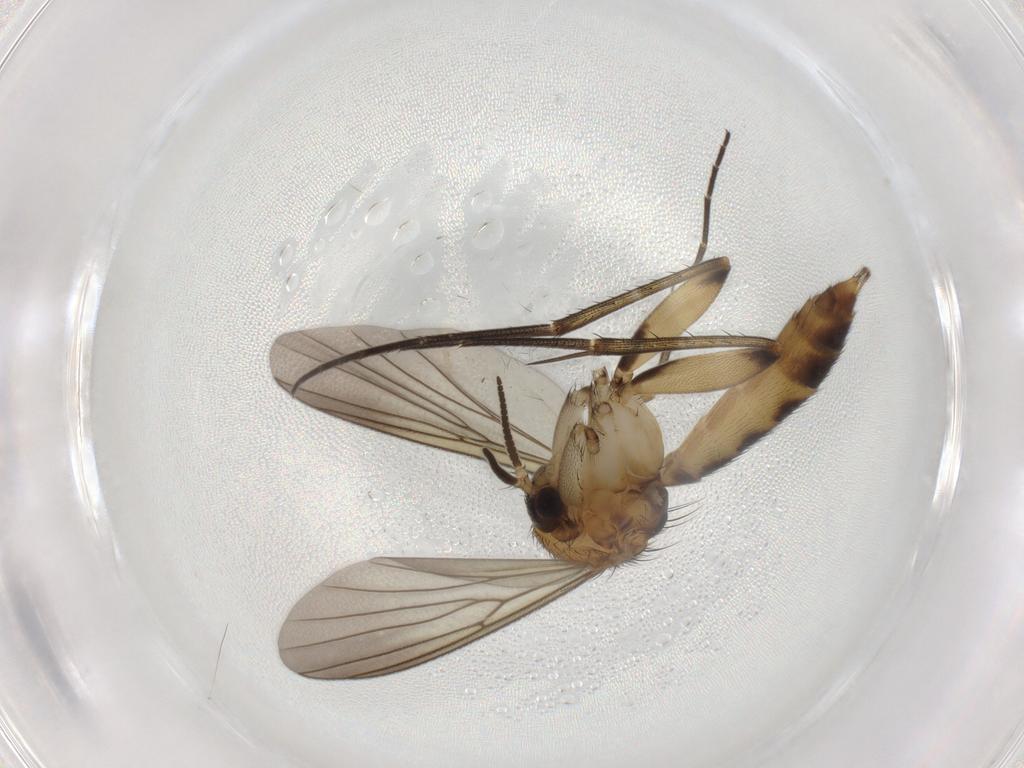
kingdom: Animalia
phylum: Arthropoda
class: Insecta
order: Diptera
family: Mycetophilidae
